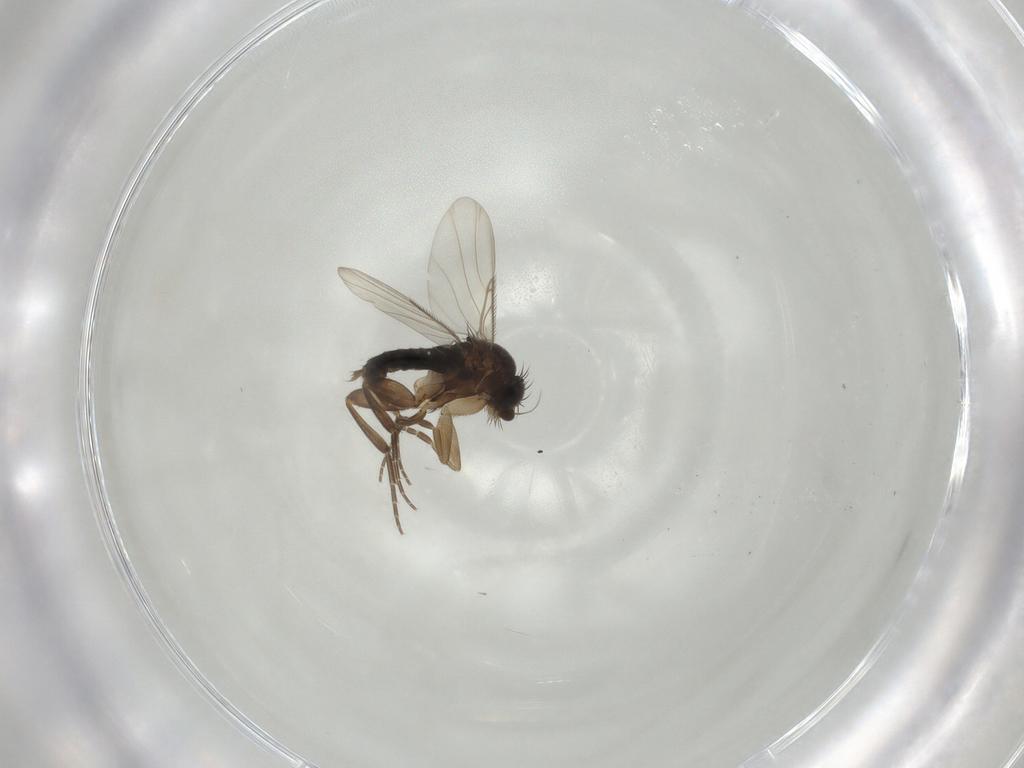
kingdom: Animalia
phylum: Arthropoda
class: Insecta
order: Diptera
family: Phoridae
